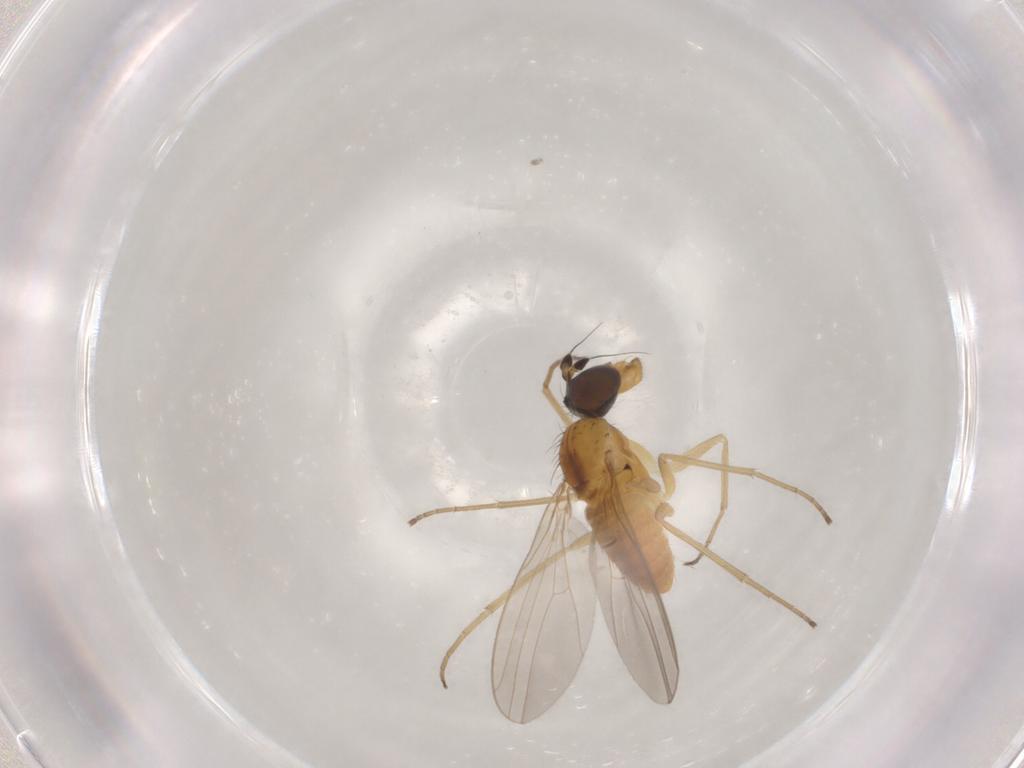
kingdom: Animalia
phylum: Arthropoda
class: Insecta
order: Diptera
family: Dolichopodidae
